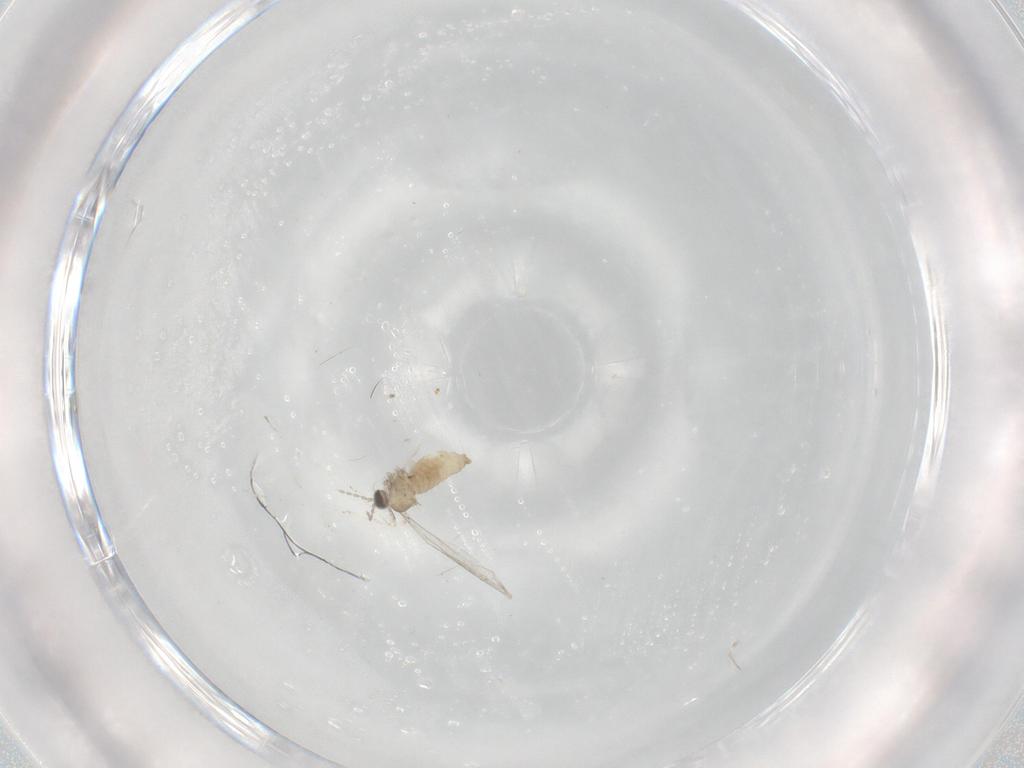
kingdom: Animalia
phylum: Arthropoda
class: Insecta
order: Diptera
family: Cecidomyiidae
